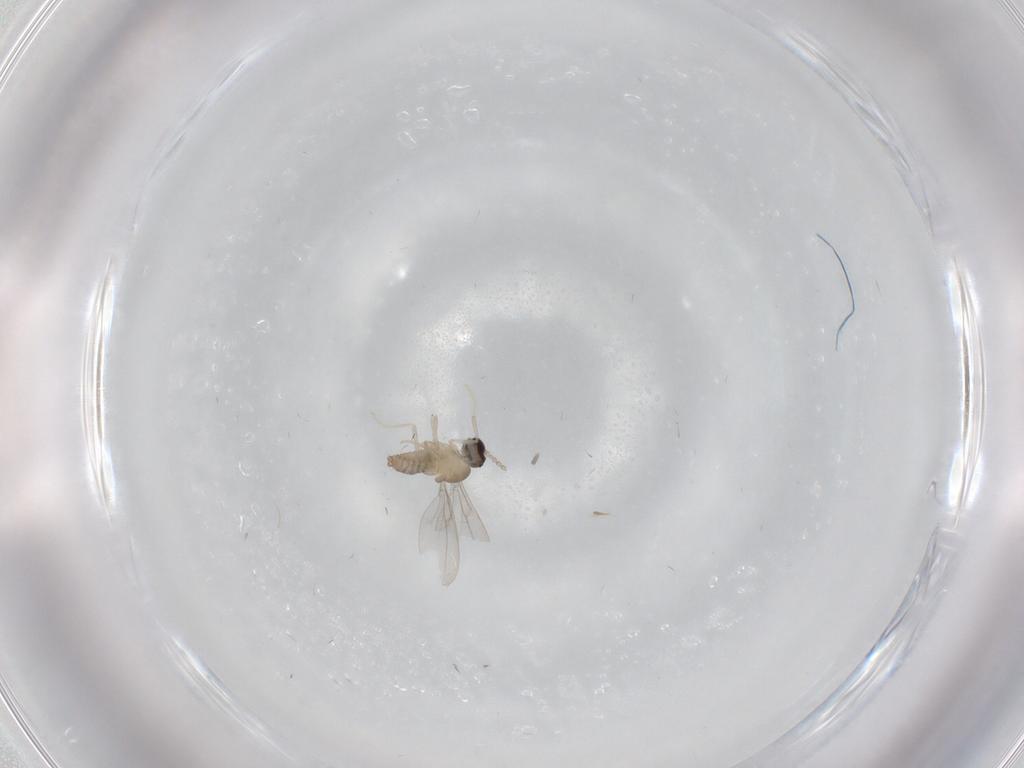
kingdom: Animalia
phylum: Arthropoda
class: Insecta
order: Diptera
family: Cecidomyiidae
